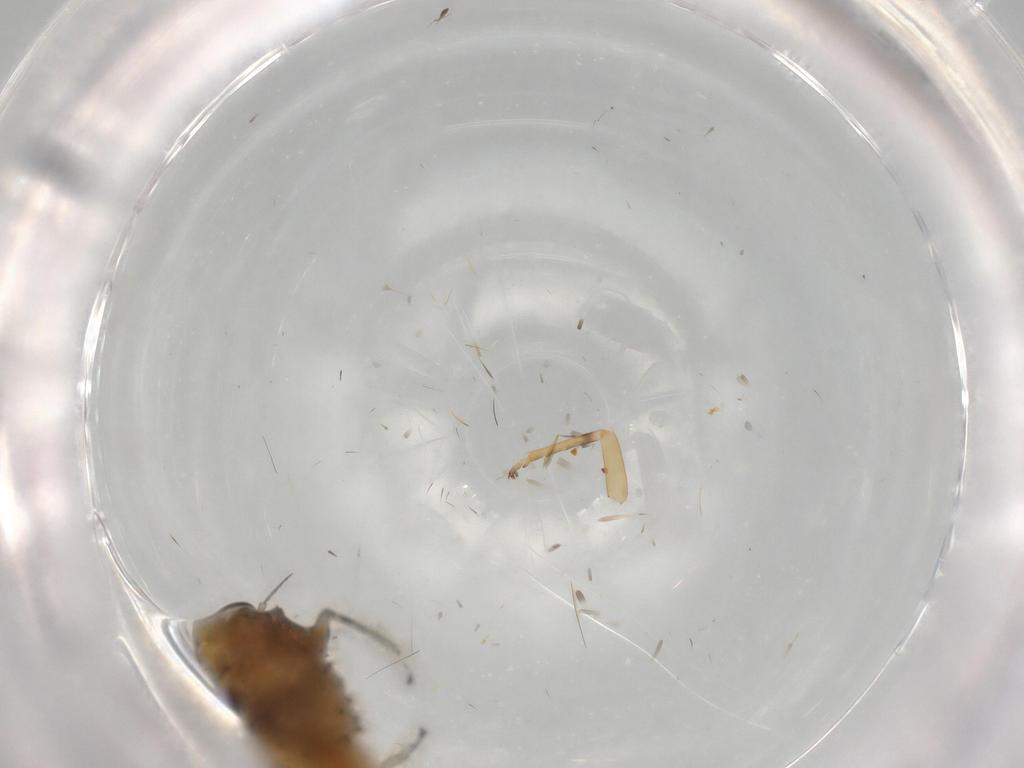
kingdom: Animalia
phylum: Arthropoda
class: Insecta
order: Hemiptera
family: Cicadellidae
